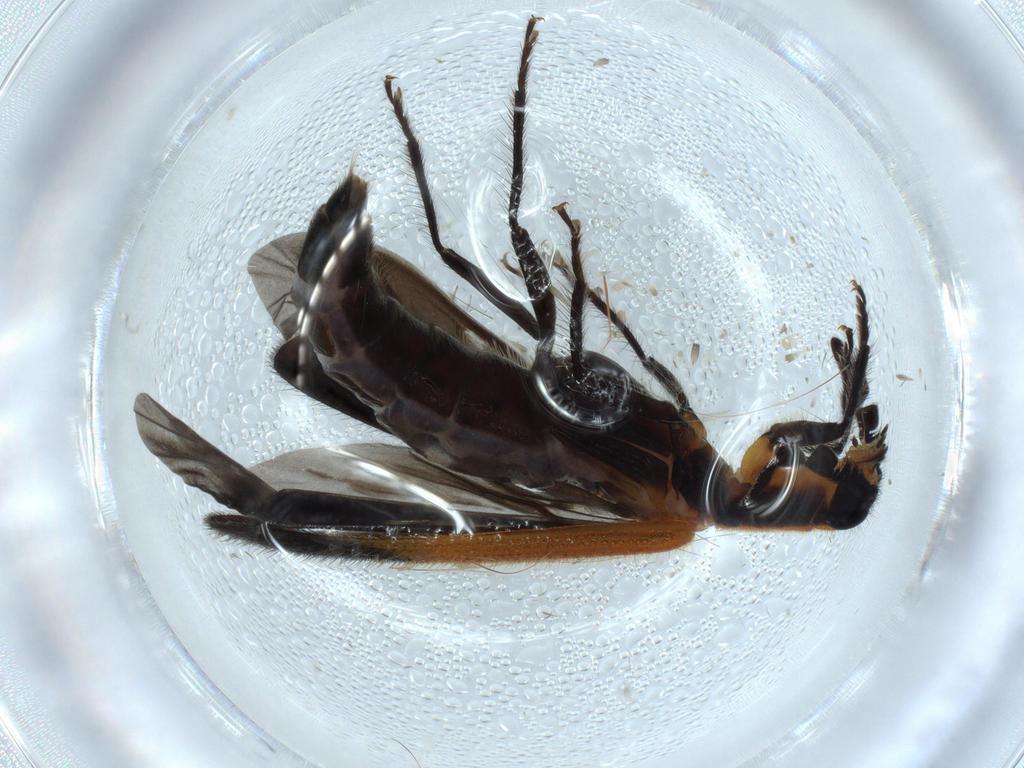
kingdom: Animalia
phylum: Arthropoda
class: Insecta
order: Coleoptera
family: Cleridae
